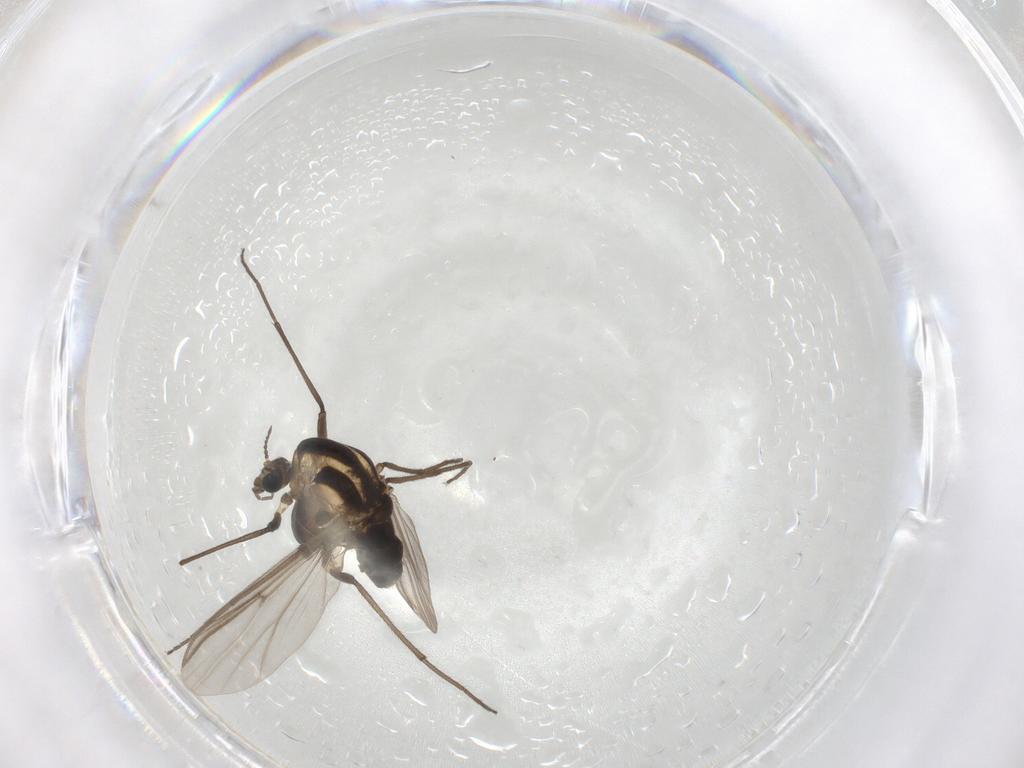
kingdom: Animalia
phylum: Arthropoda
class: Insecta
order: Diptera
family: Chironomidae
